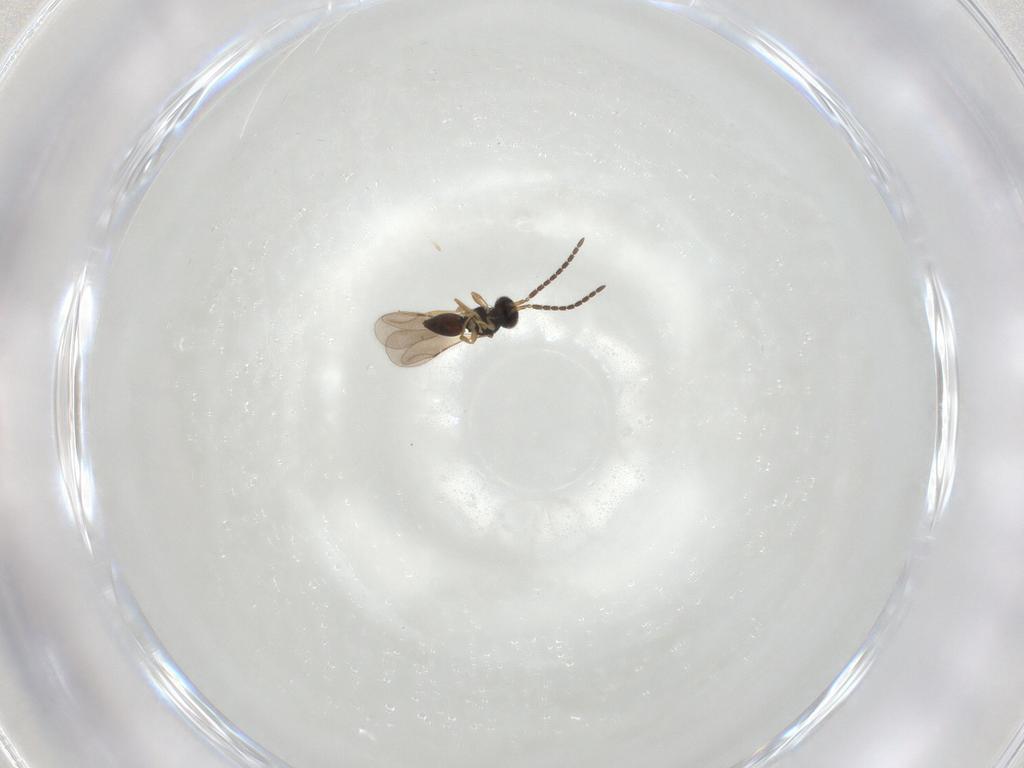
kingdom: Animalia
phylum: Arthropoda
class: Insecta
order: Hymenoptera
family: Ceraphronidae
